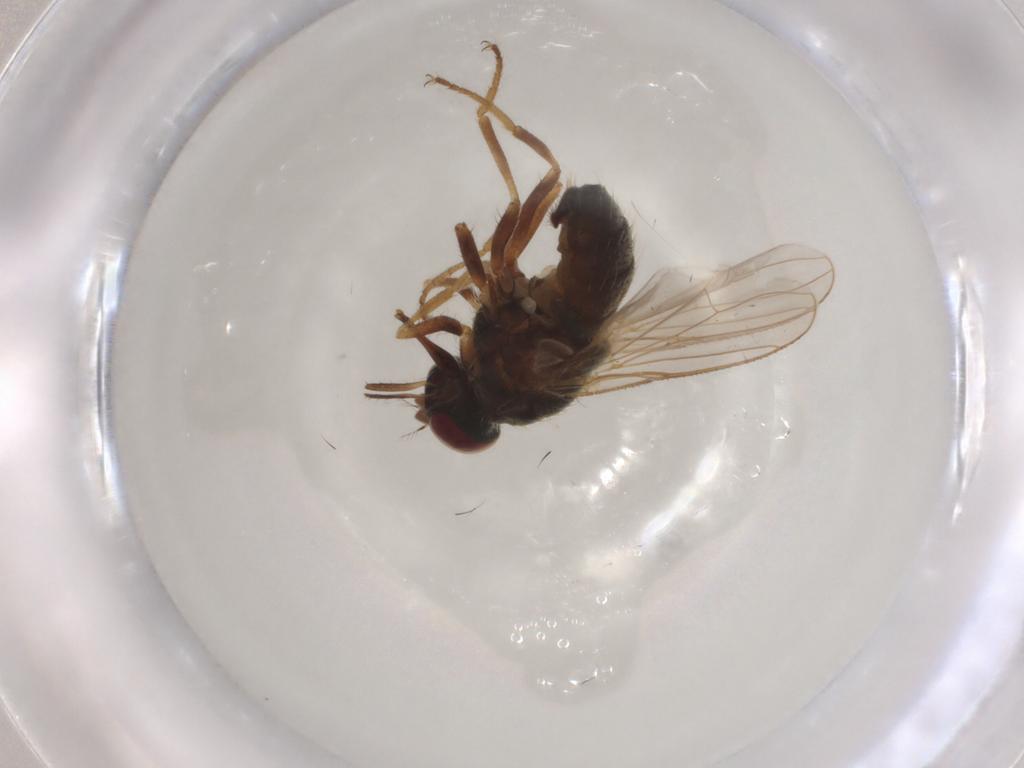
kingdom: Animalia
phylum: Arthropoda
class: Insecta
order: Diptera
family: Muscidae
